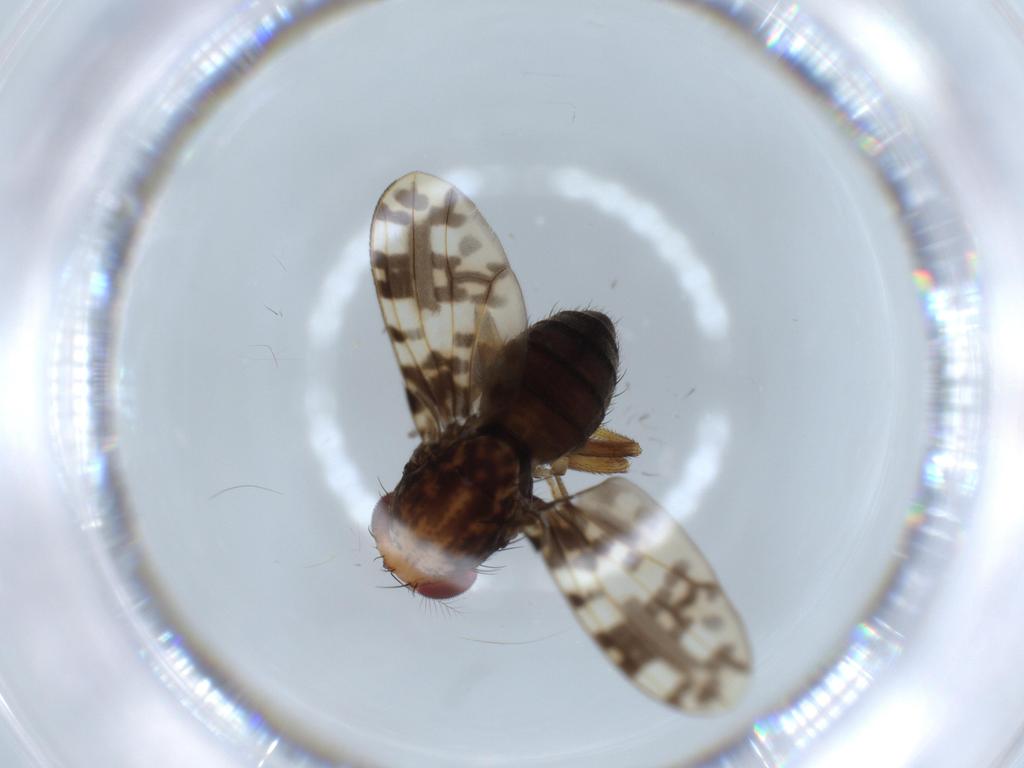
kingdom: Animalia
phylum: Arthropoda
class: Insecta
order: Diptera
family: Drosophilidae
